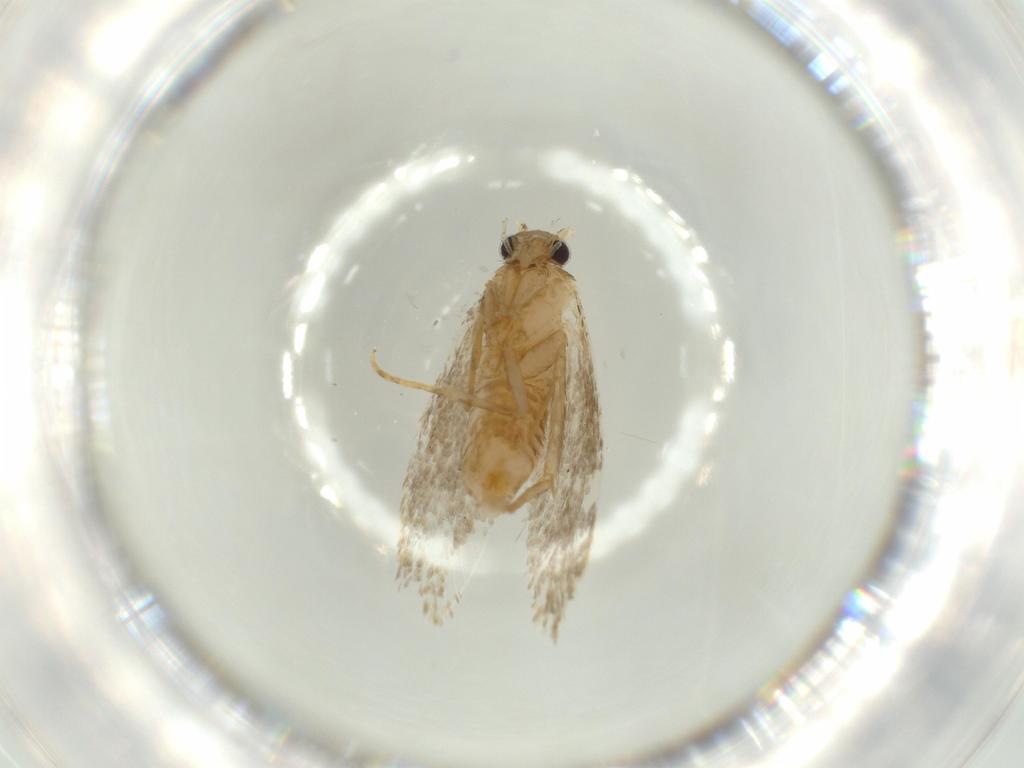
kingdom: Animalia
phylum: Arthropoda
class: Insecta
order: Lepidoptera
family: Tineidae
